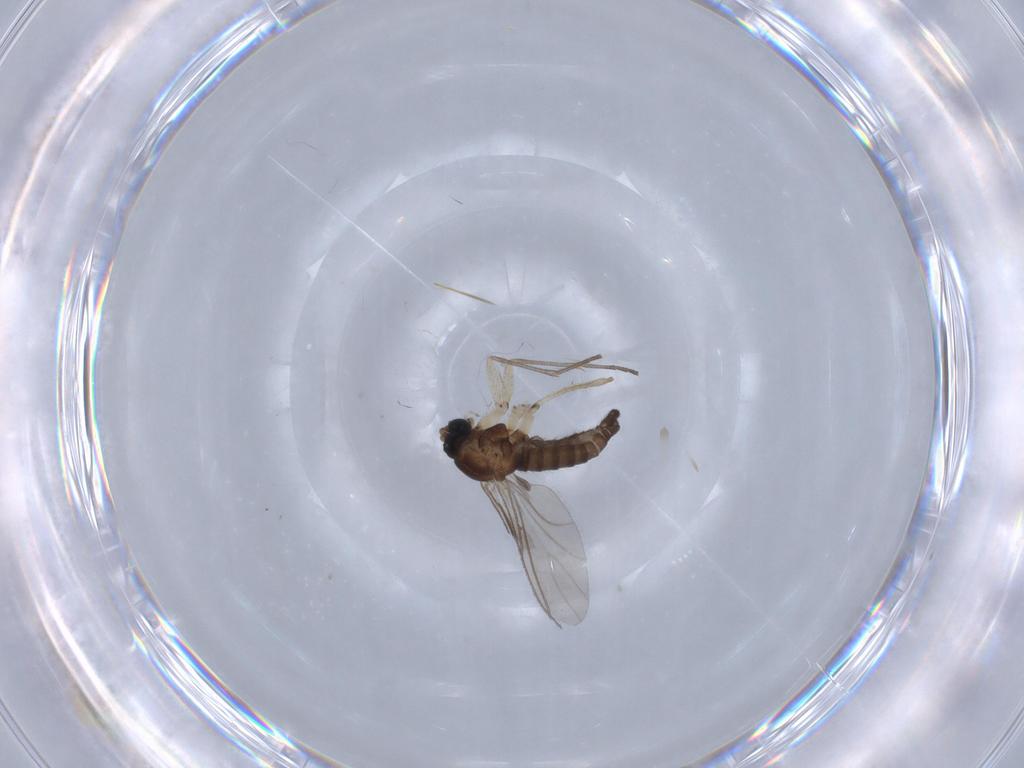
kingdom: Animalia
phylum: Arthropoda
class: Insecta
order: Diptera
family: Sciaridae
